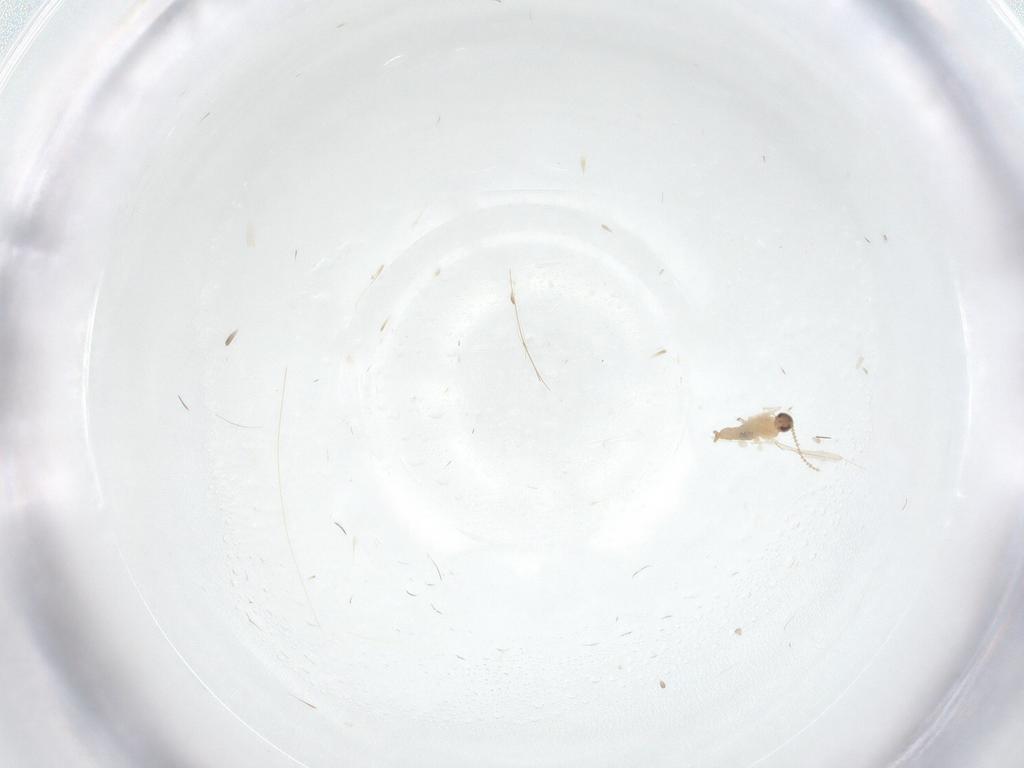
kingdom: Animalia
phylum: Arthropoda
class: Insecta
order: Diptera
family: Cecidomyiidae
